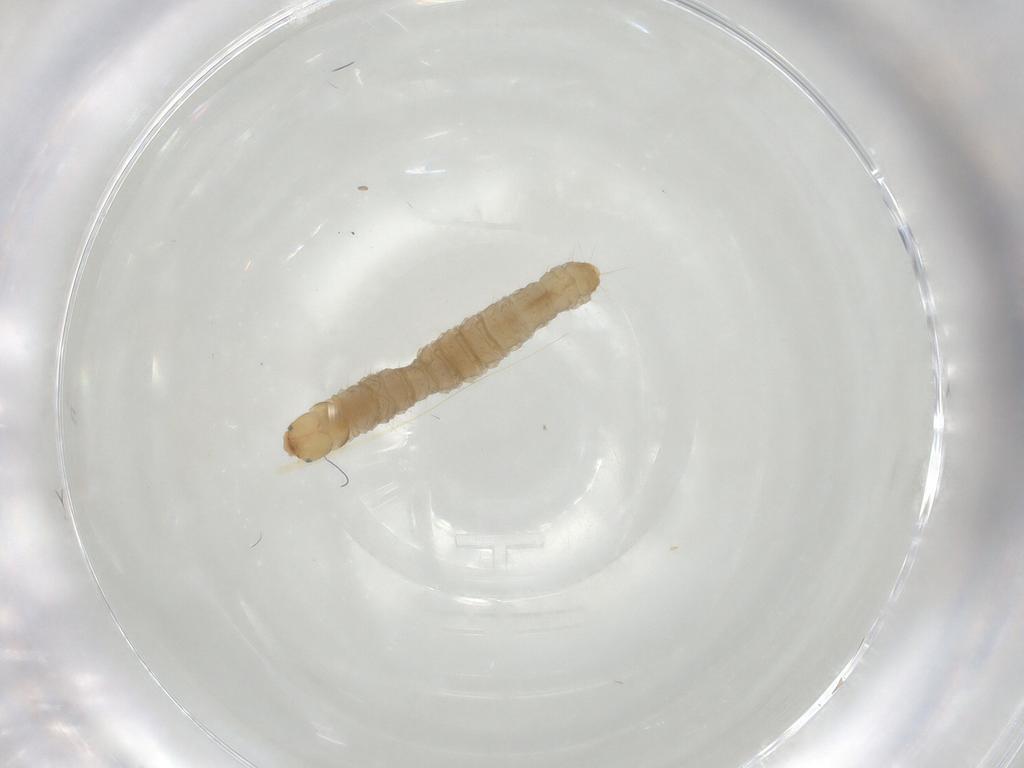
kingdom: Animalia
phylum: Arthropoda
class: Insecta
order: Lepidoptera
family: Tortricidae
